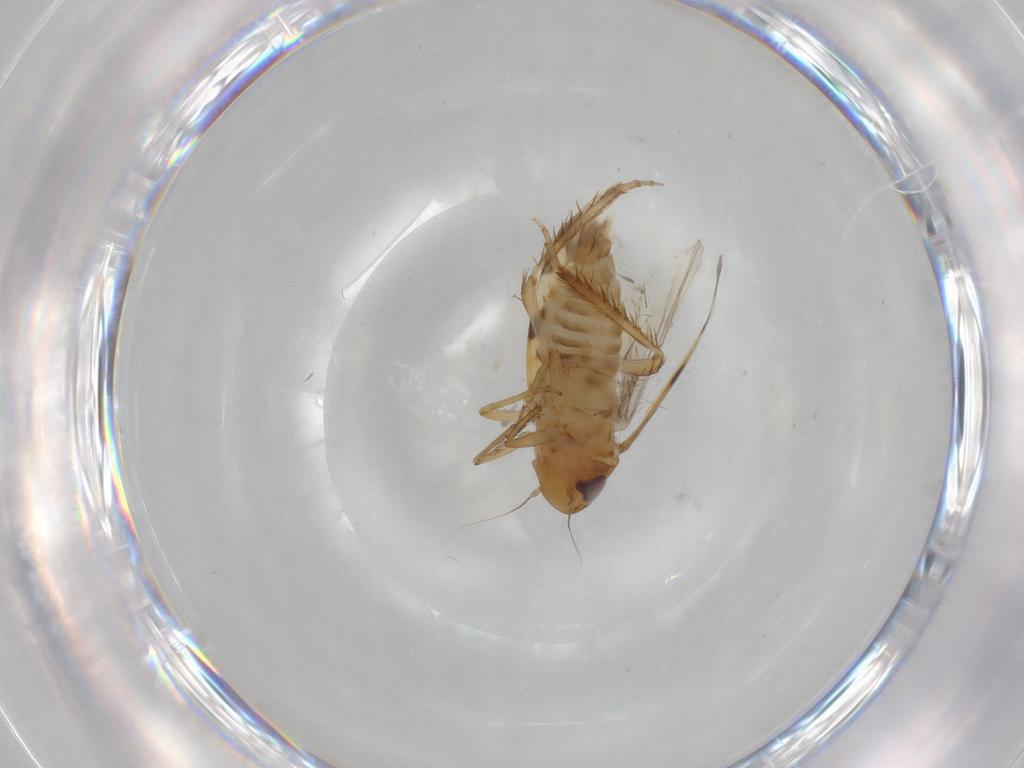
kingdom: Animalia
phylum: Arthropoda
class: Insecta
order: Hemiptera
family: Cicadellidae
